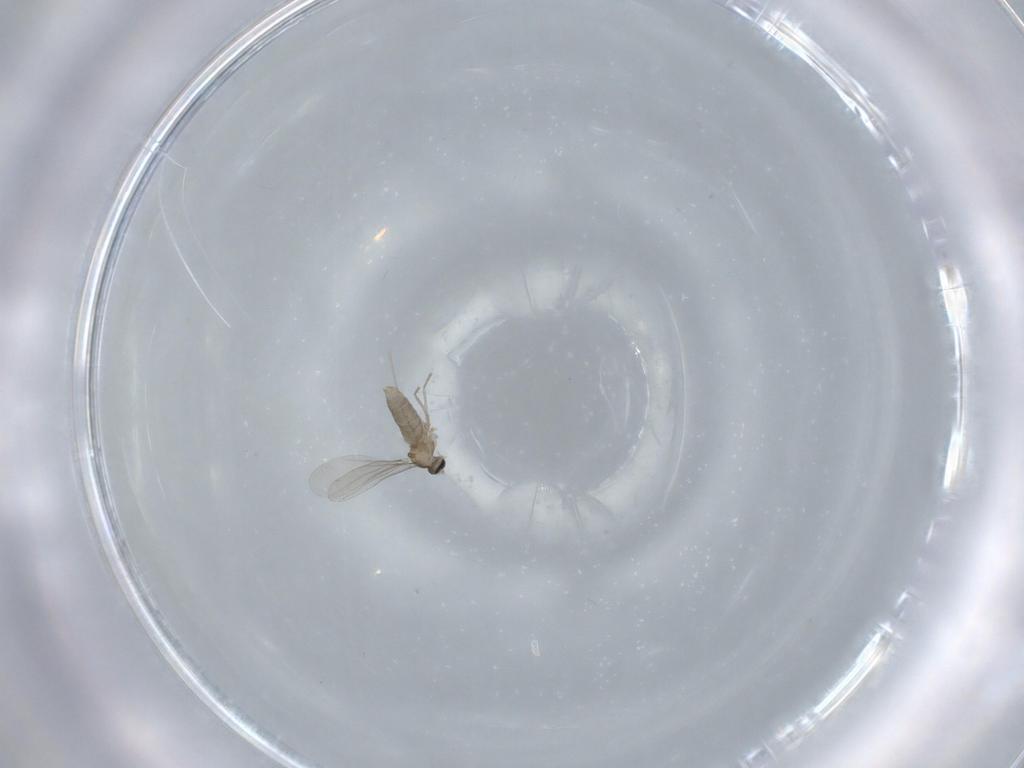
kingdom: Animalia
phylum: Arthropoda
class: Insecta
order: Diptera
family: Cecidomyiidae
